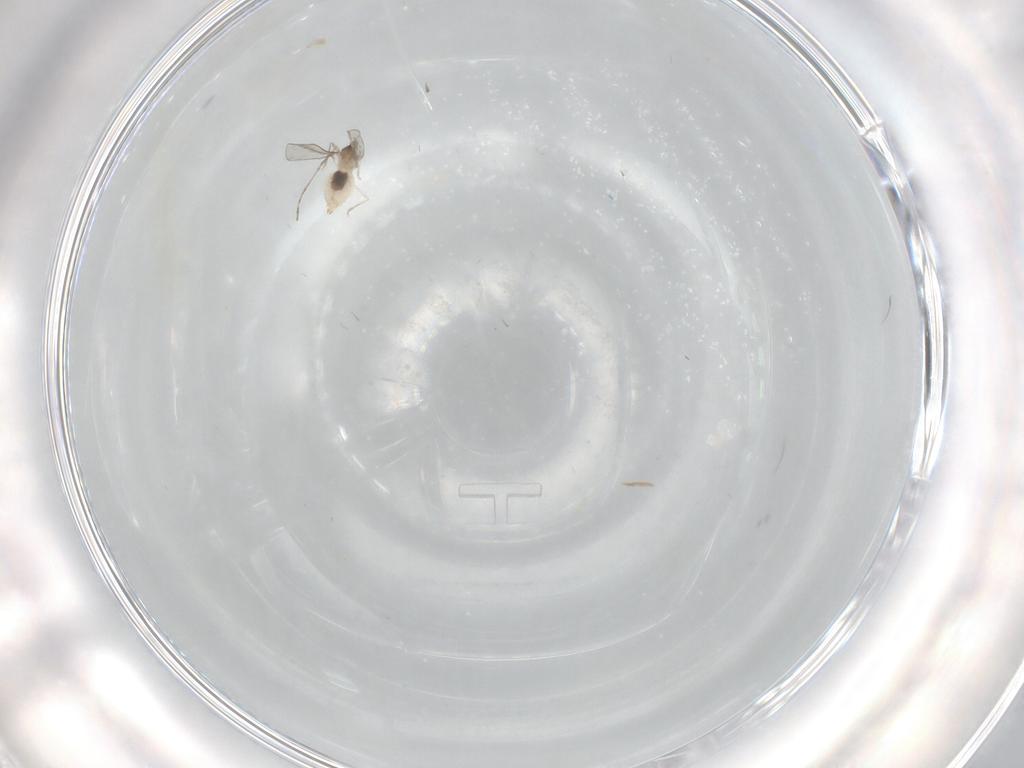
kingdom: Animalia
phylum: Arthropoda
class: Insecta
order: Diptera
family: Cecidomyiidae
